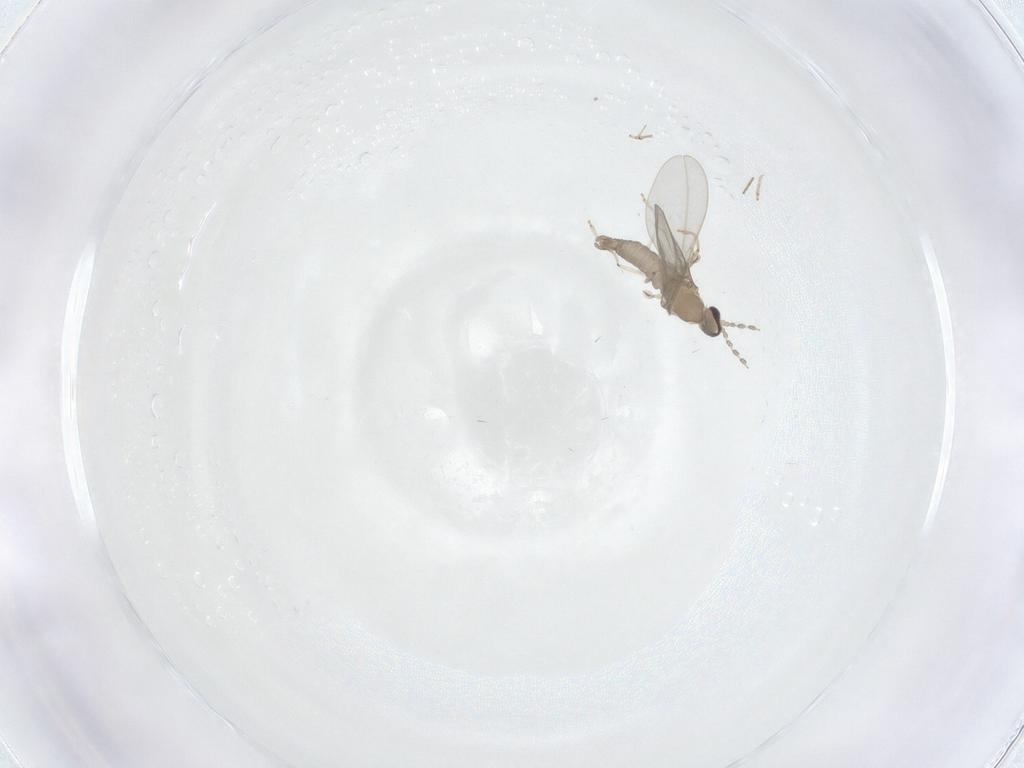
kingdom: Animalia
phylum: Arthropoda
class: Insecta
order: Diptera
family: Cecidomyiidae
